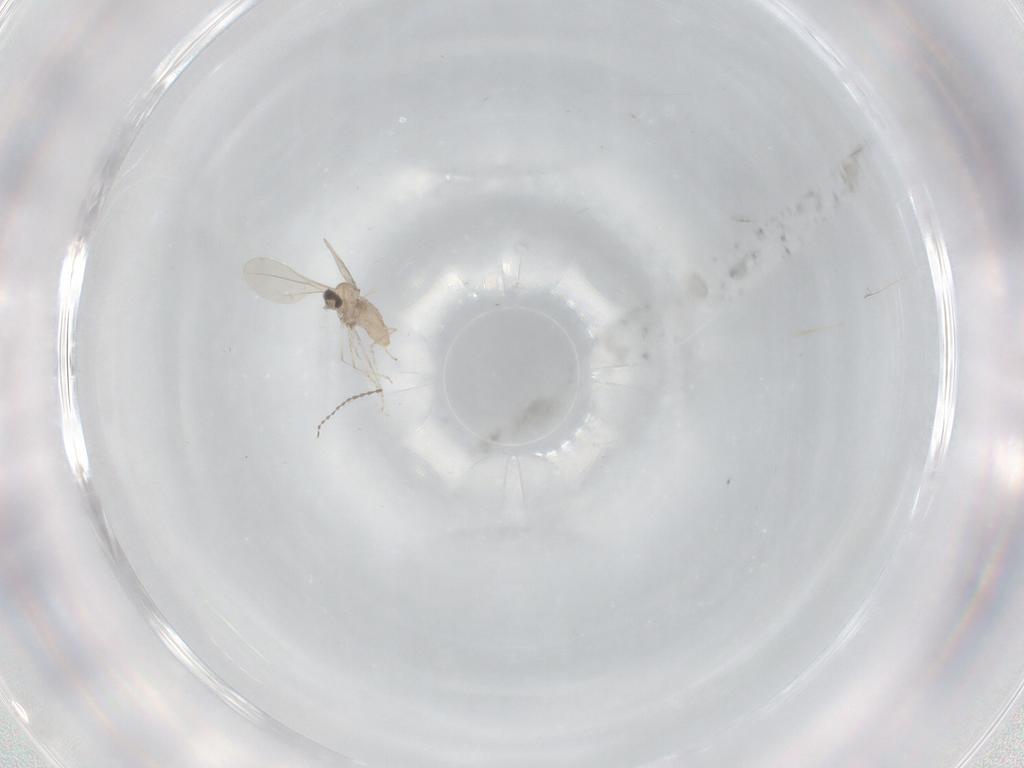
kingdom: Animalia
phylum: Arthropoda
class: Insecta
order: Diptera
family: Cecidomyiidae
